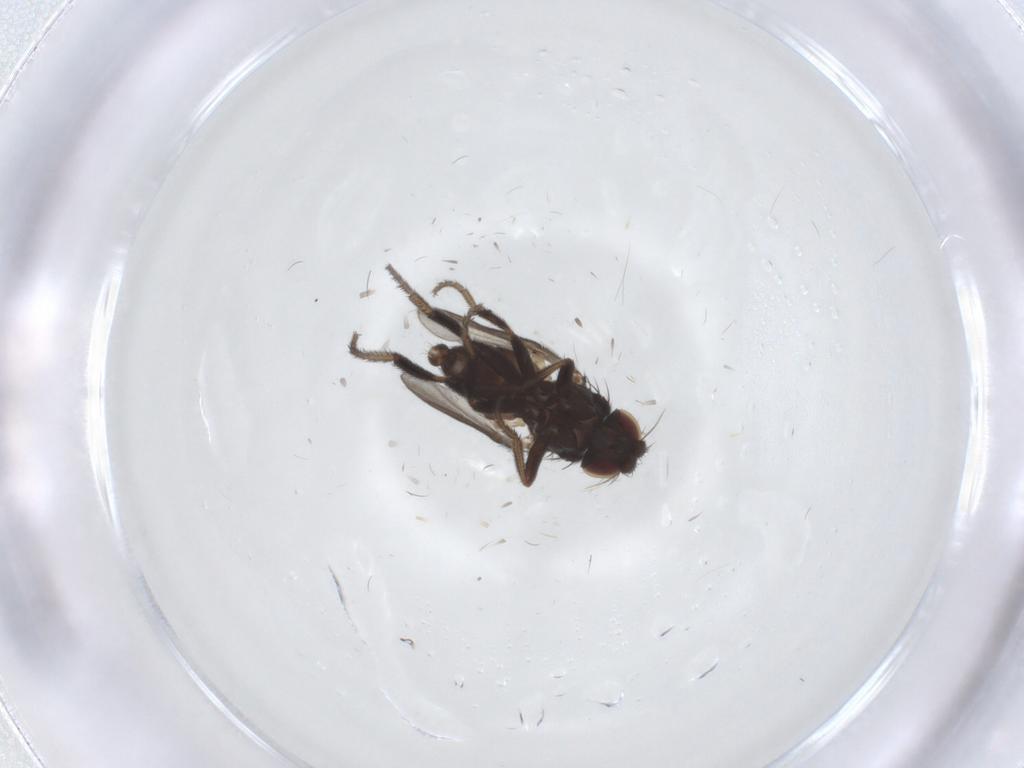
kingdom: Animalia
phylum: Arthropoda
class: Insecta
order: Diptera
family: Milichiidae
